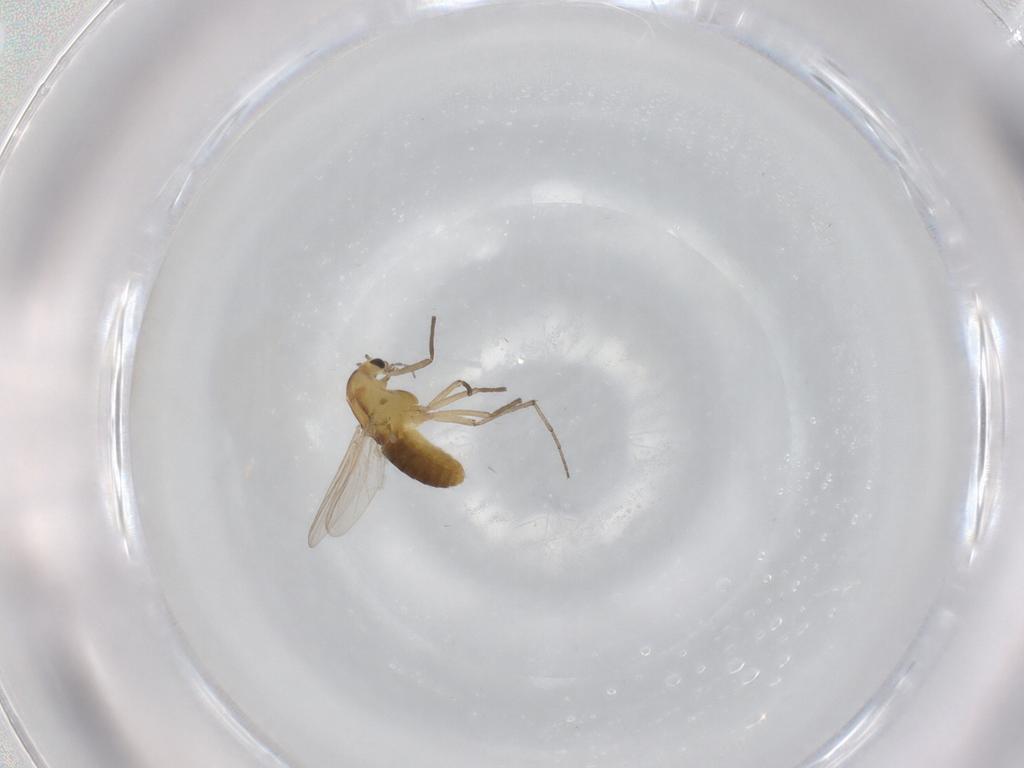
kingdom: Animalia
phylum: Arthropoda
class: Insecta
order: Diptera
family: Chironomidae
